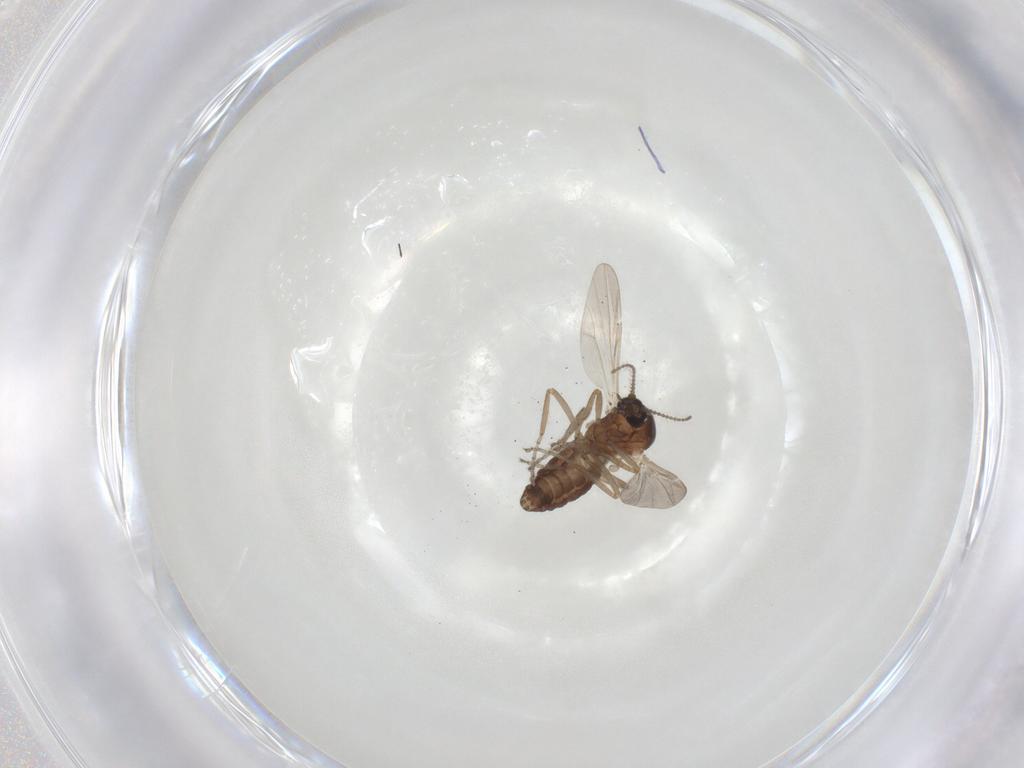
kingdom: Animalia
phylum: Arthropoda
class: Insecta
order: Diptera
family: Ceratopogonidae
